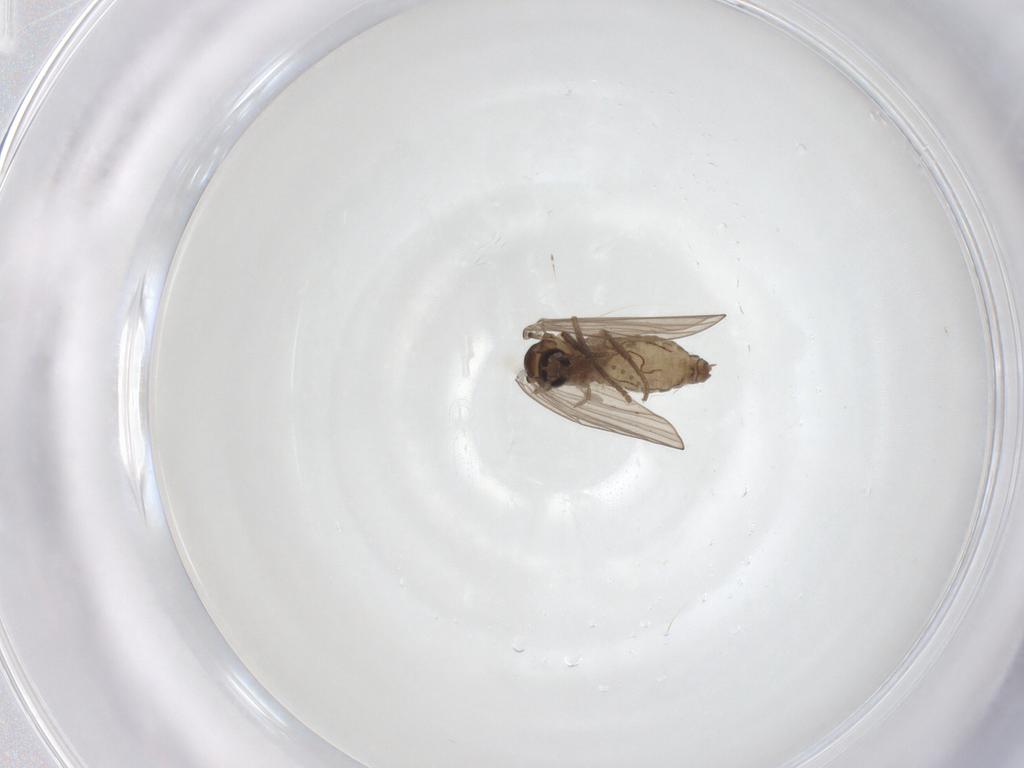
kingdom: Animalia
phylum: Arthropoda
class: Insecta
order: Diptera
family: Psychodidae
